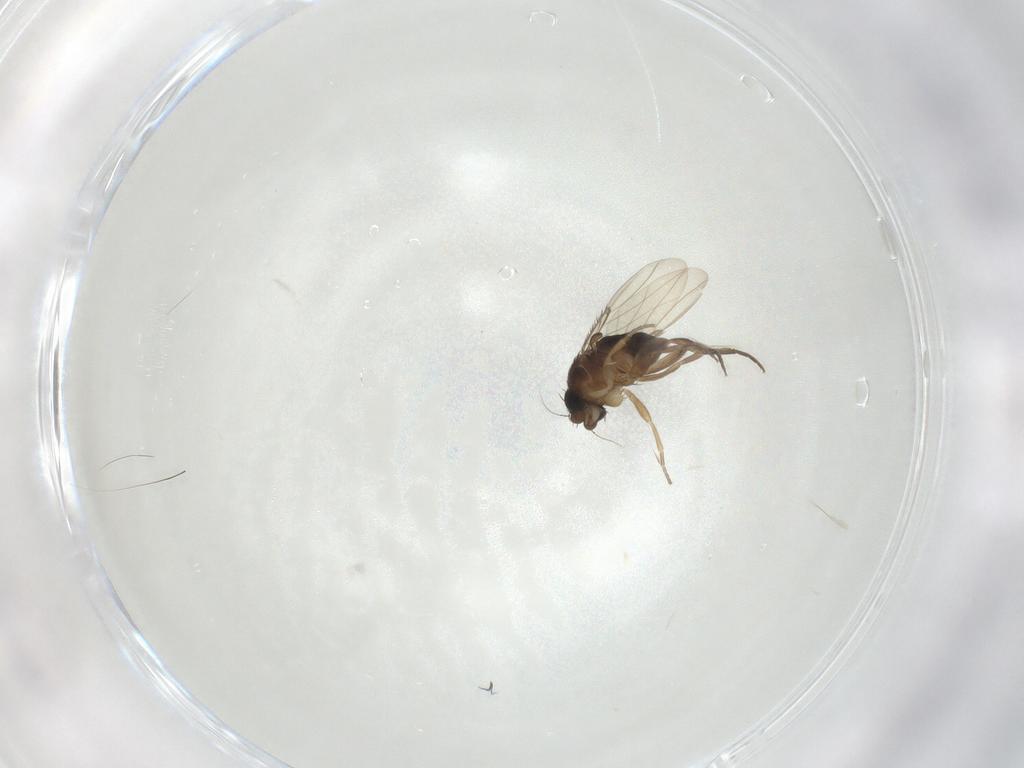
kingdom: Animalia
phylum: Arthropoda
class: Insecta
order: Diptera
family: Phoridae
